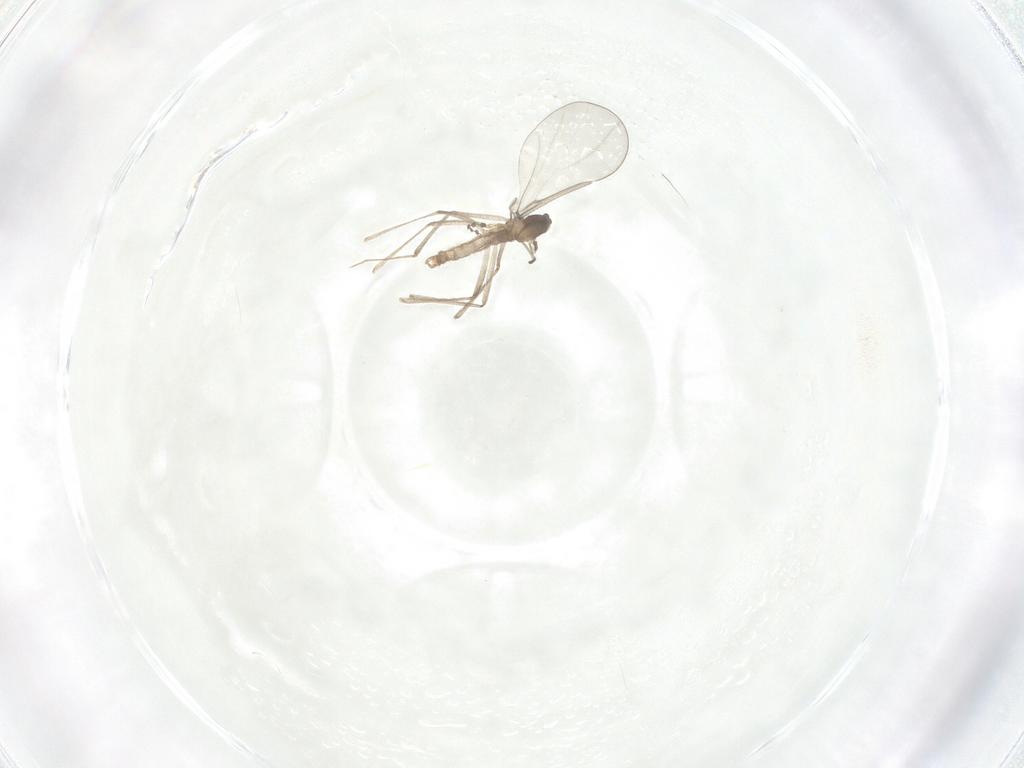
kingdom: Animalia
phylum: Arthropoda
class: Insecta
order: Diptera
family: Cecidomyiidae
